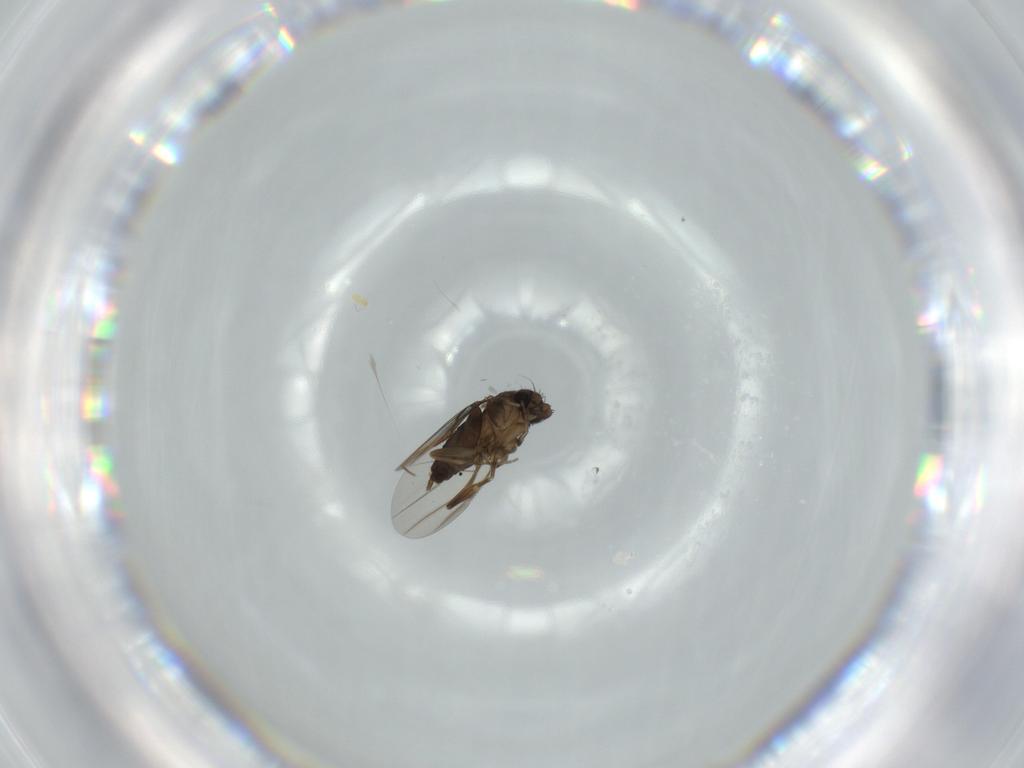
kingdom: Animalia
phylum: Arthropoda
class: Insecta
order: Diptera
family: Phoridae
